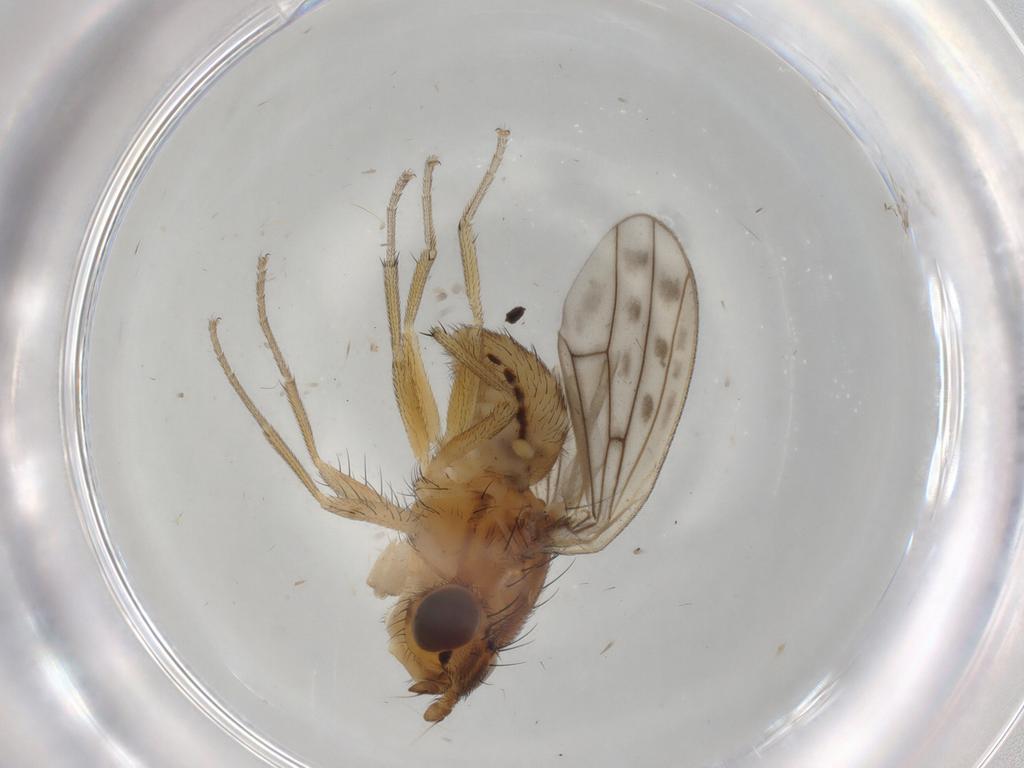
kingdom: Animalia
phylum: Arthropoda
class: Insecta
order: Diptera
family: Lauxaniidae
